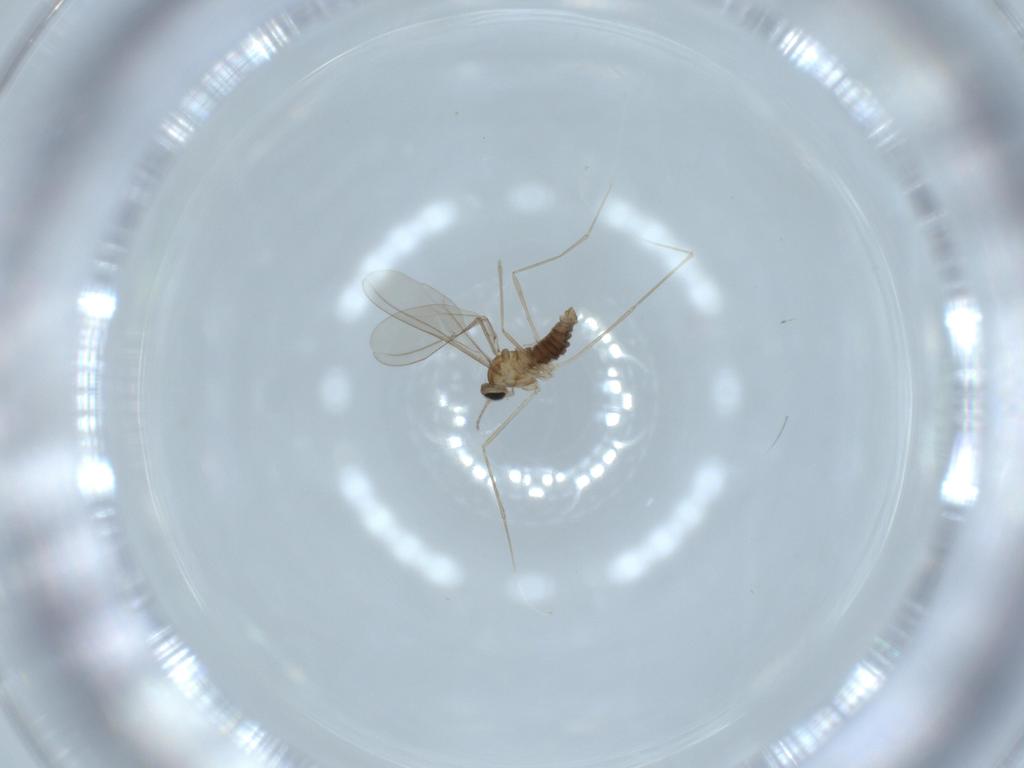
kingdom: Animalia
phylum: Arthropoda
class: Insecta
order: Diptera
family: Cecidomyiidae
